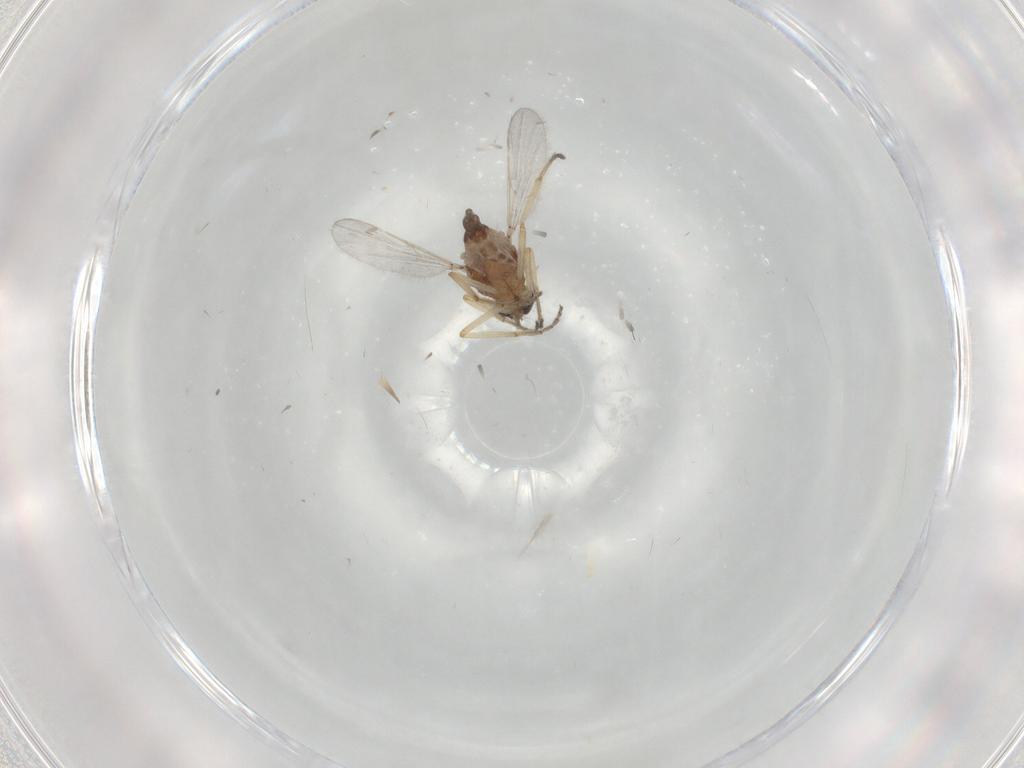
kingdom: Animalia
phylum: Arthropoda
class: Insecta
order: Diptera
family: Ceratopogonidae
